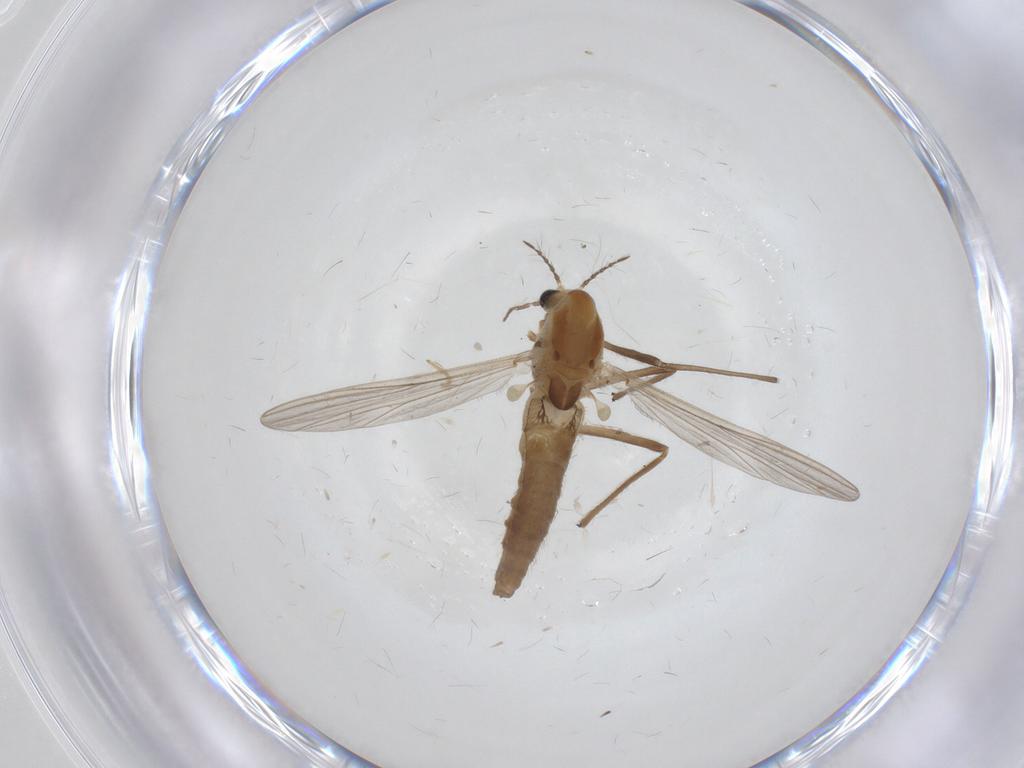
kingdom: Animalia
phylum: Arthropoda
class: Insecta
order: Diptera
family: Chironomidae
